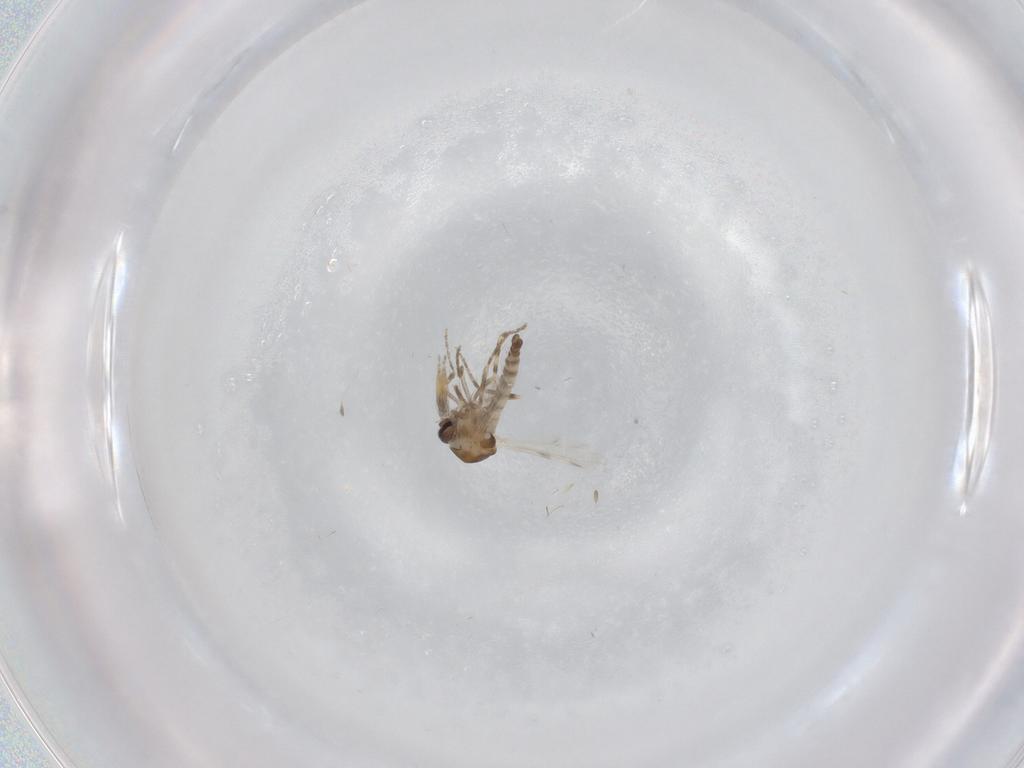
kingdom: Animalia
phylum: Arthropoda
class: Insecta
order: Diptera
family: Ceratopogonidae
